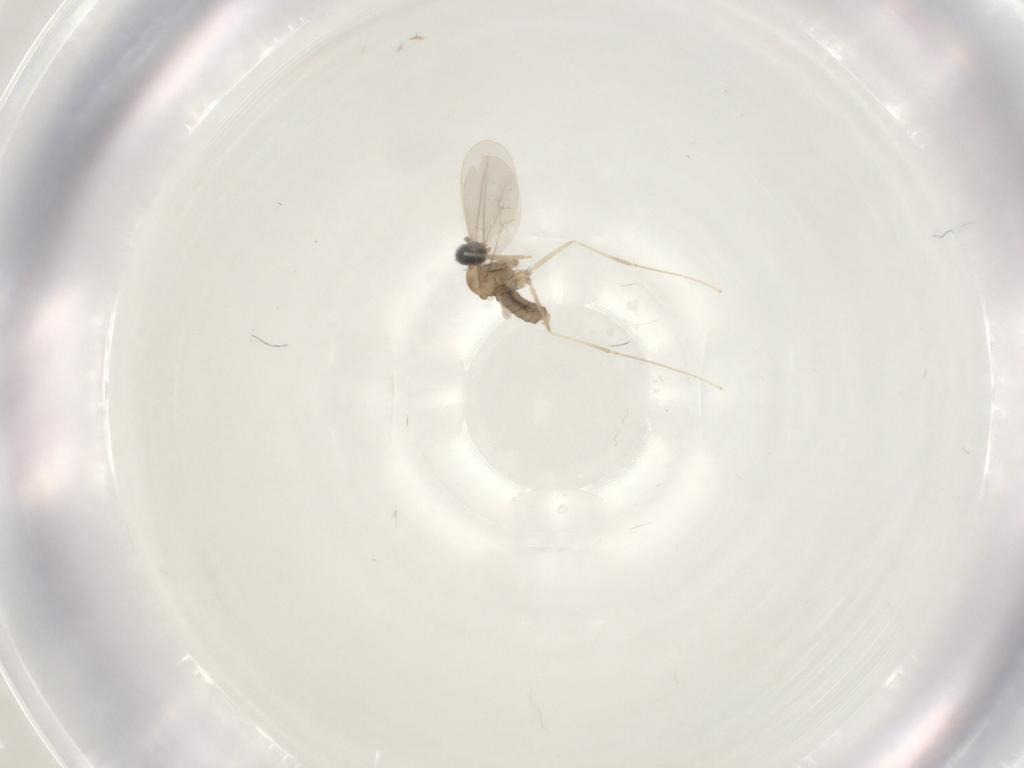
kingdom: Animalia
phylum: Arthropoda
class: Insecta
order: Diptera
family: Cecidomyiidae
